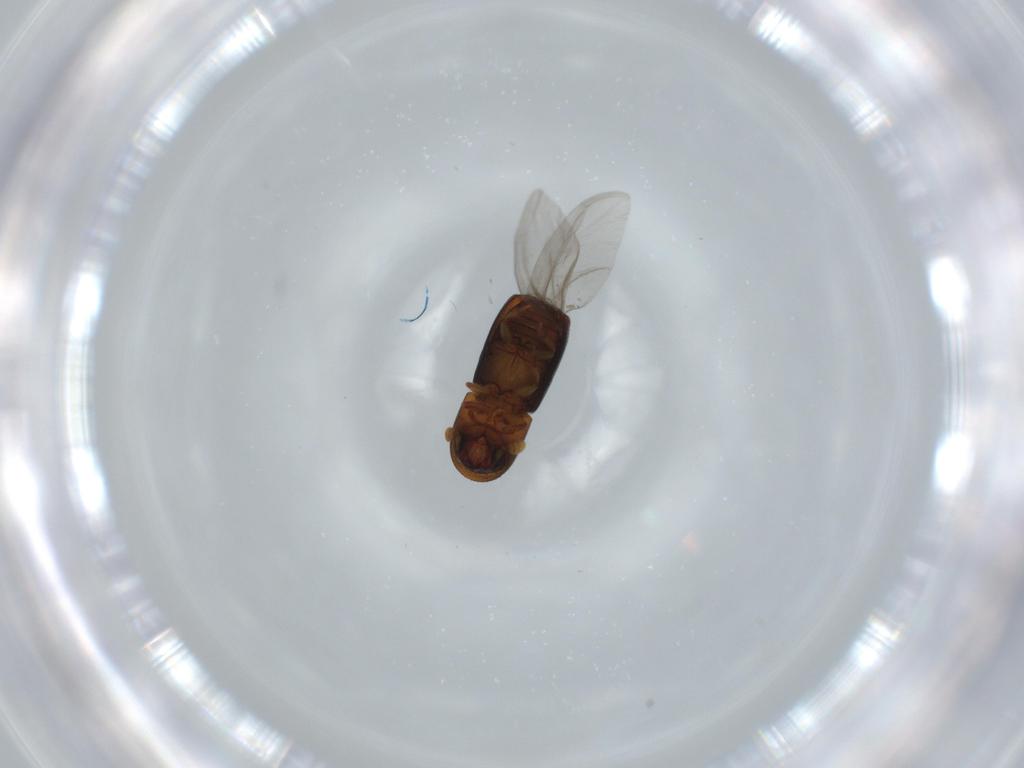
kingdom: Animalia
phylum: Arthropoda
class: Insecta
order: Coleoptera
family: Curculionidae
